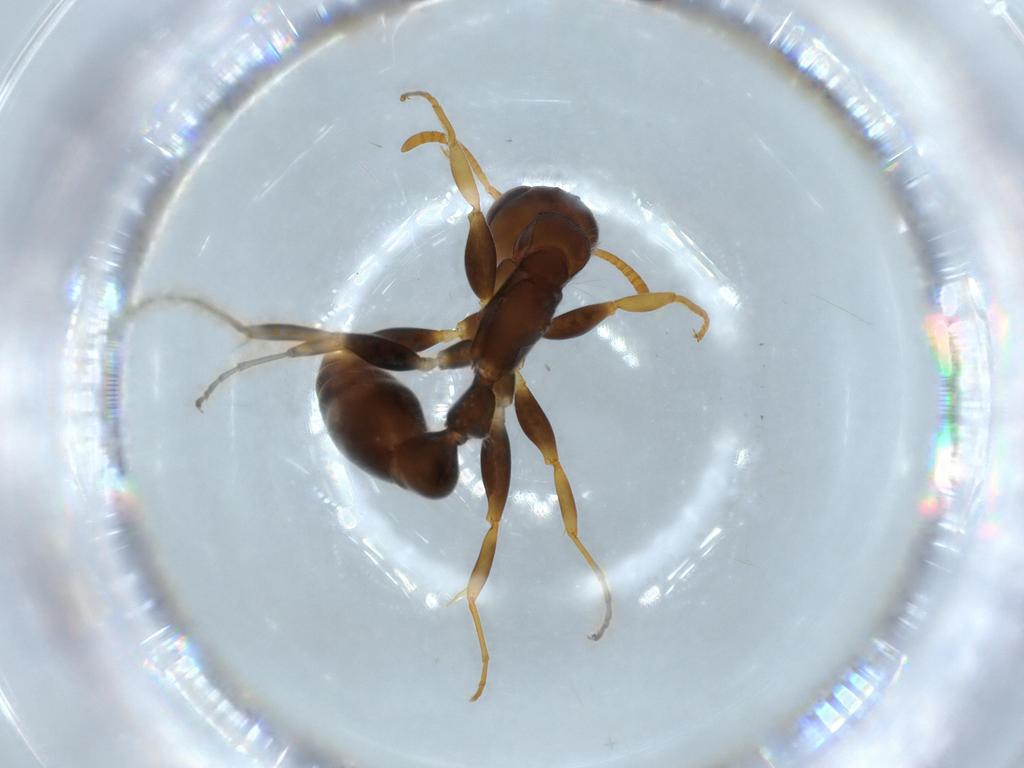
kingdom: Animalia
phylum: Arthropoda
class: Insecta
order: Hymenoptera
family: Formicidae
